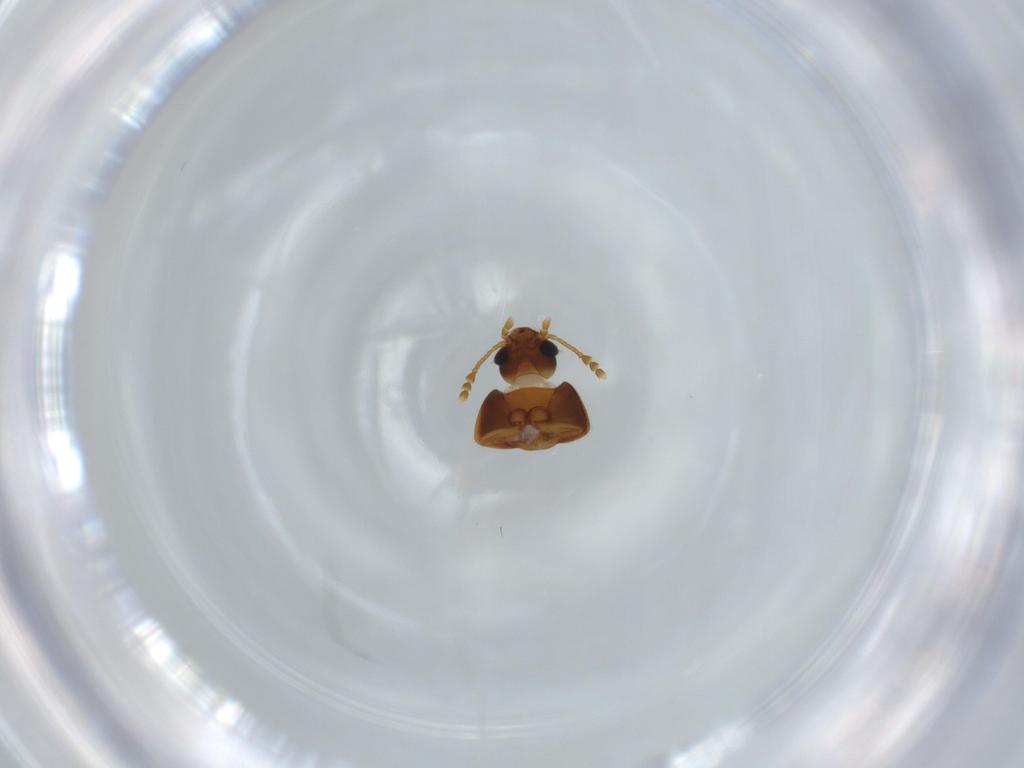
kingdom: Animalia
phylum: Arthropoda
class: Insecta
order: Coleoptera
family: Mycetophagidae
